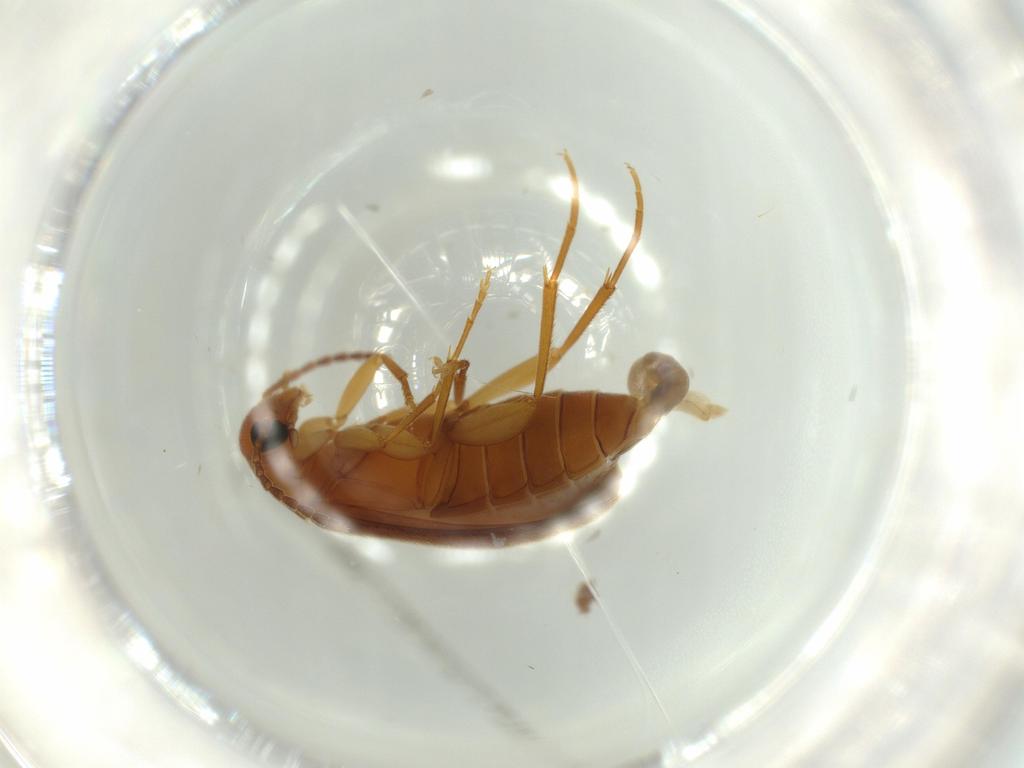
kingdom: Animalia
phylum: Arthropoda
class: Insecta
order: Coleoptera
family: Scraptiidae
